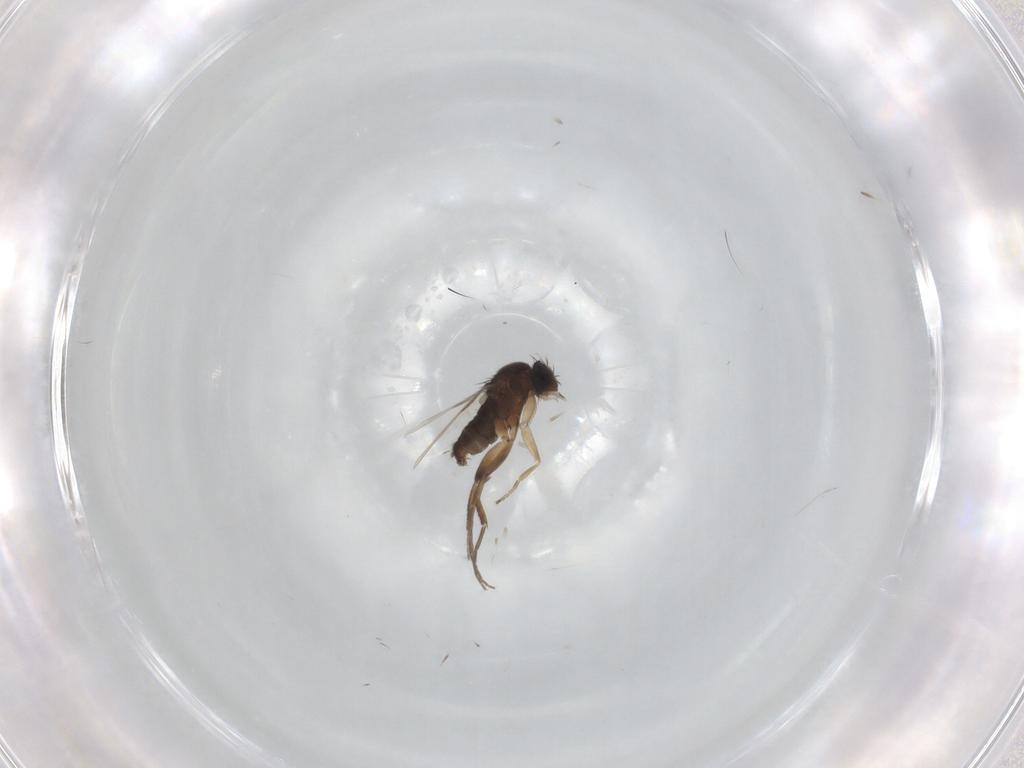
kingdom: Animalia
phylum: Arthropoda
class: Insecta
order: Diptera
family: Phoridae
